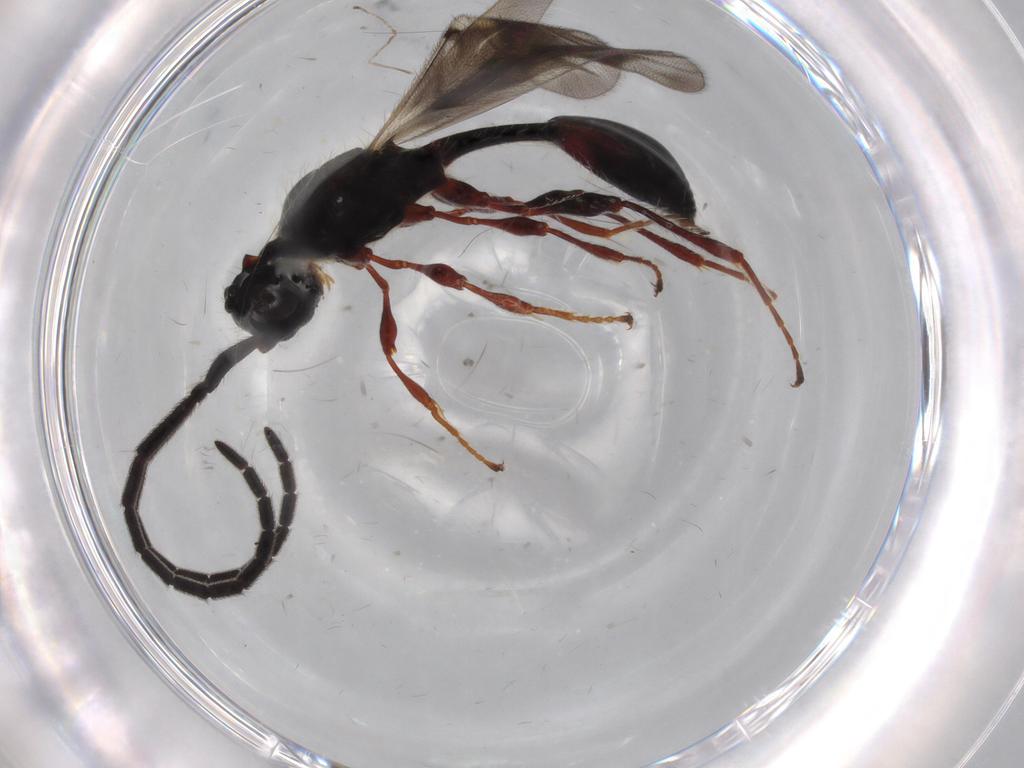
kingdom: Animalia
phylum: Arthropoda
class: Insecta
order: Hymenoptera
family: Diapriidae
